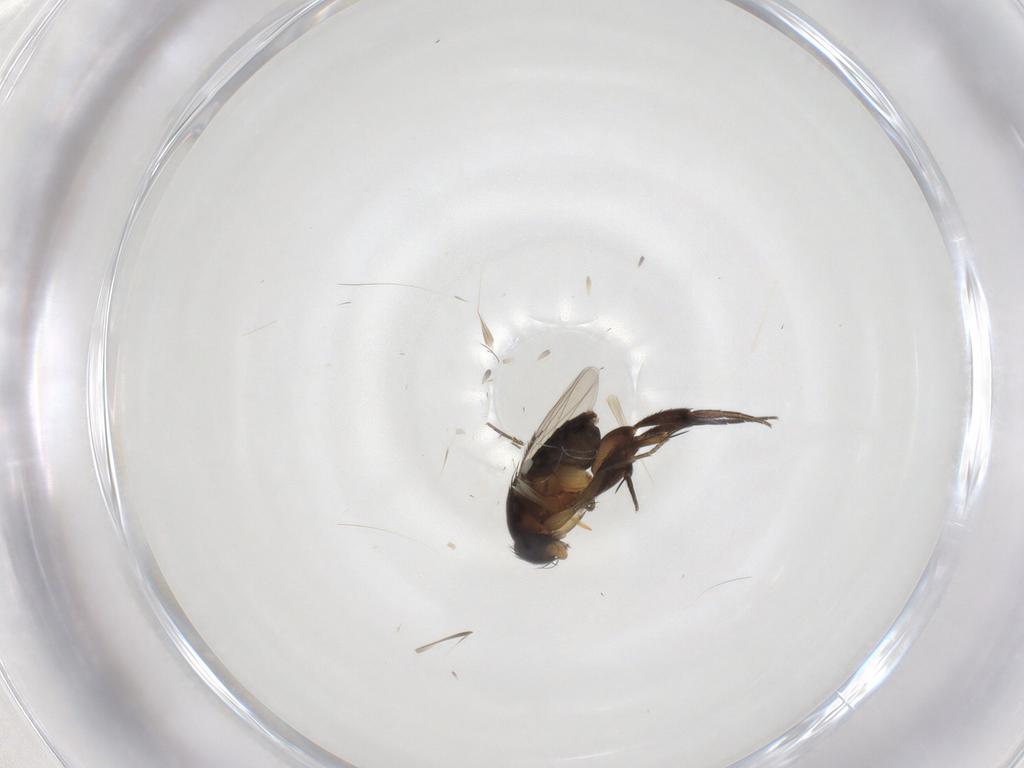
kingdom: Animalia
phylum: Arthropoda
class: Insecta
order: Diptera
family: Phoridae
